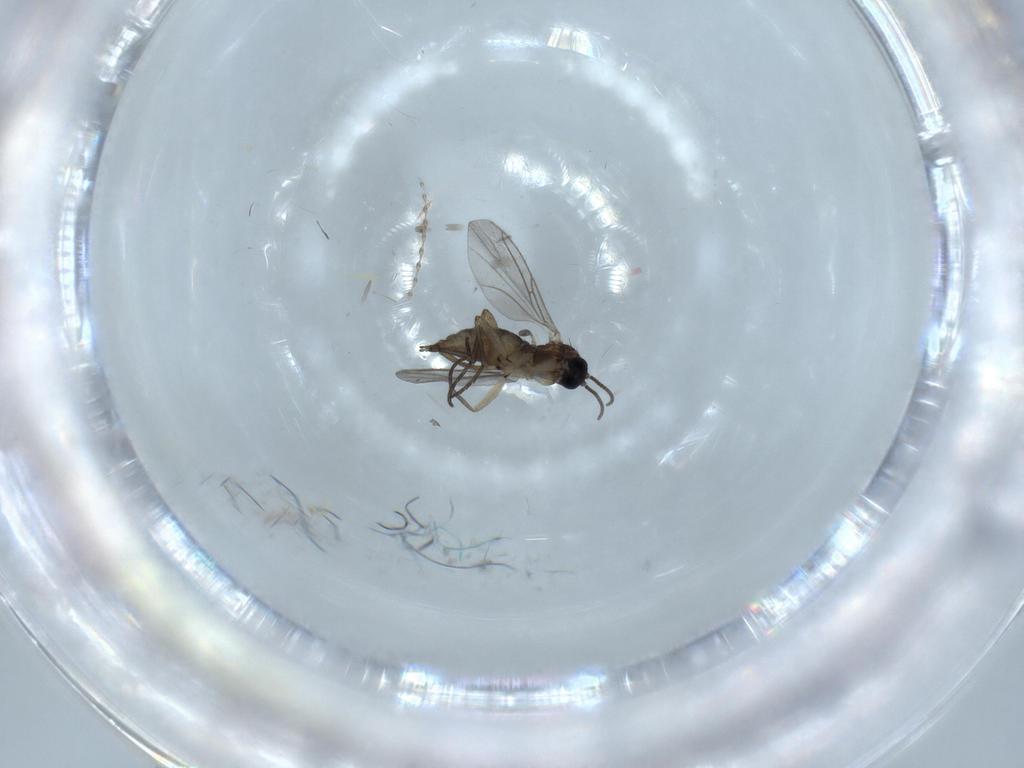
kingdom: Animalia
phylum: Arthropoda
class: Insecta
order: Diptera
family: Sciaridae
